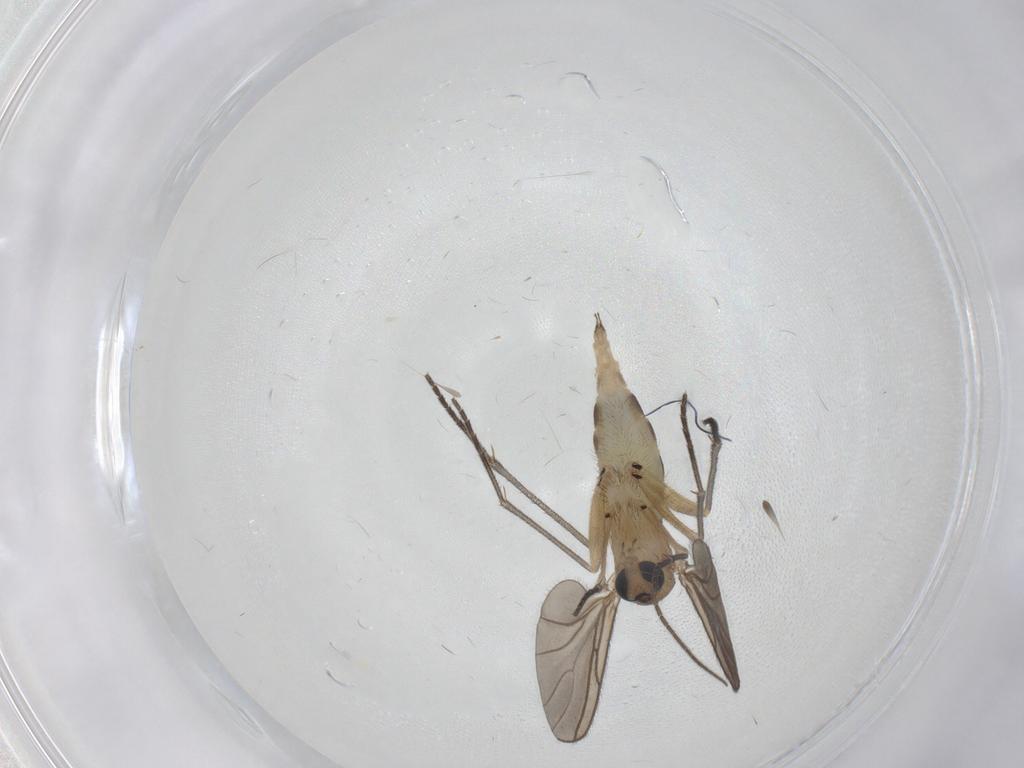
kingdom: Animalia
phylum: Arthropoda
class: Insecta
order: Diptera
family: Sciaridae
